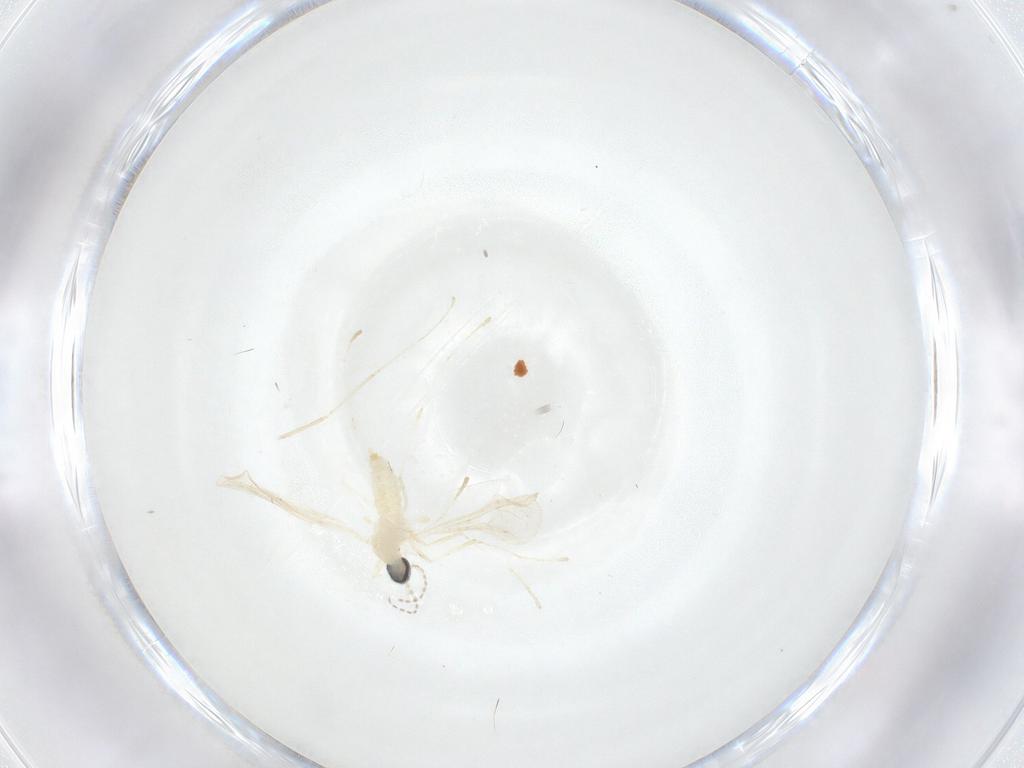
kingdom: Animalia
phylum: Arthropoda
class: Insecta
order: Diptera
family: Cecidomyiidae
